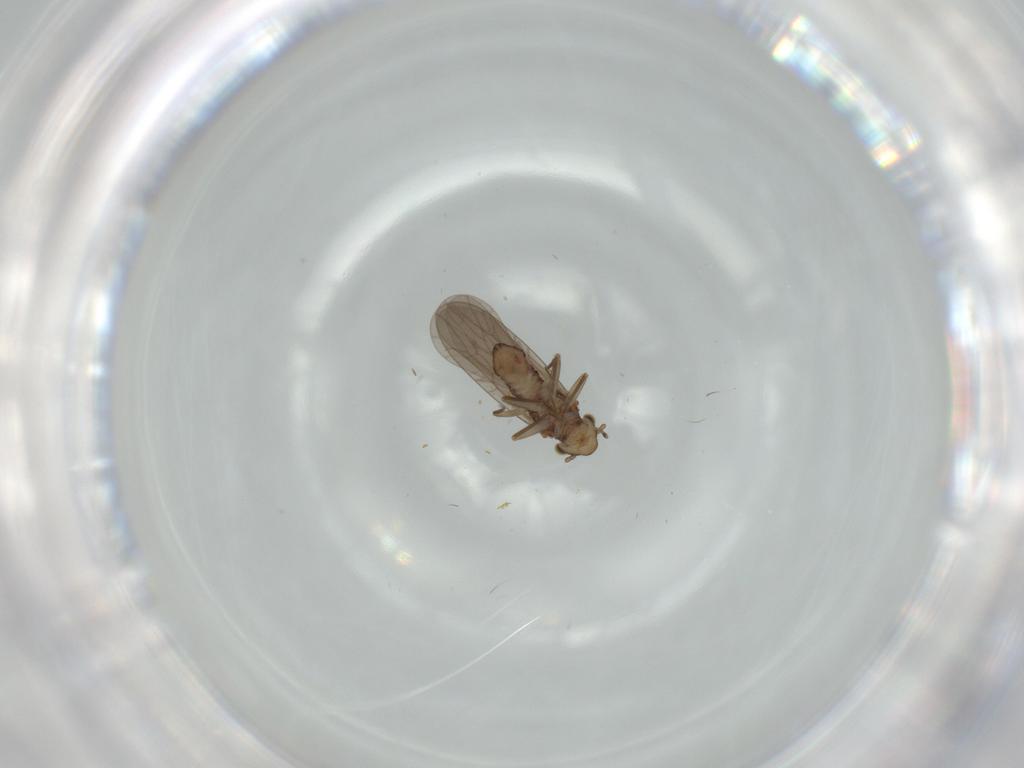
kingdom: Animalia
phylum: Arthropoda
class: Insecta
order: Psocodea
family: Lepidopsocidae
